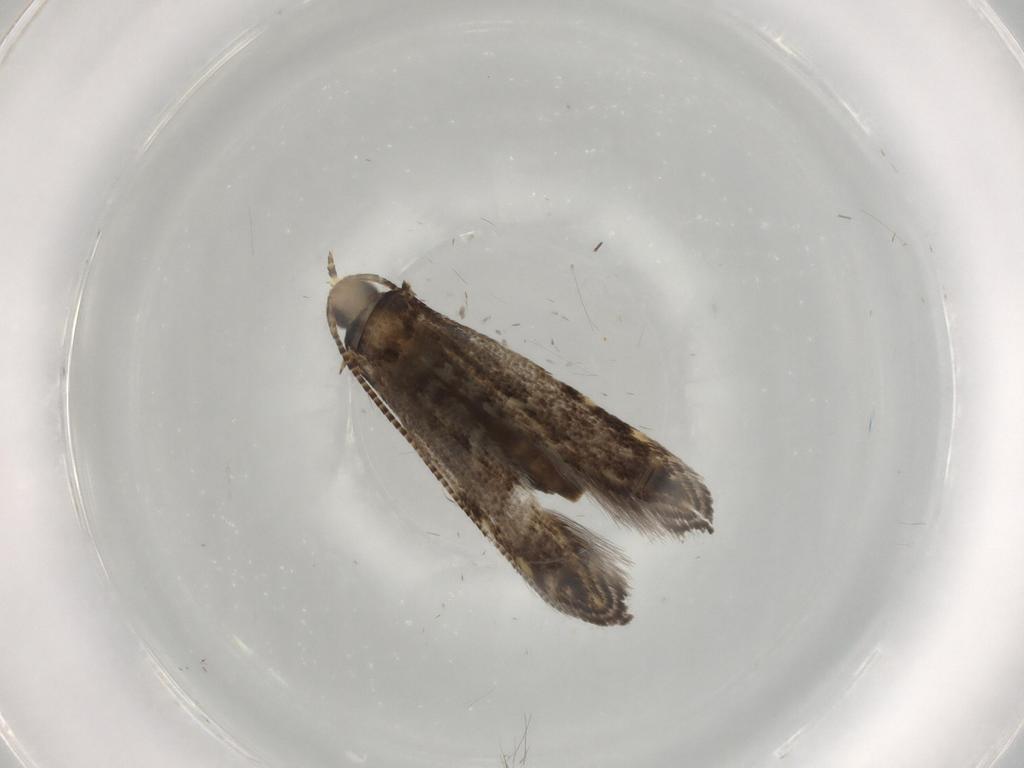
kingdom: Animalia
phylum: Arthropoda
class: Insecta
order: Lepidoptera
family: Gracillariidae
